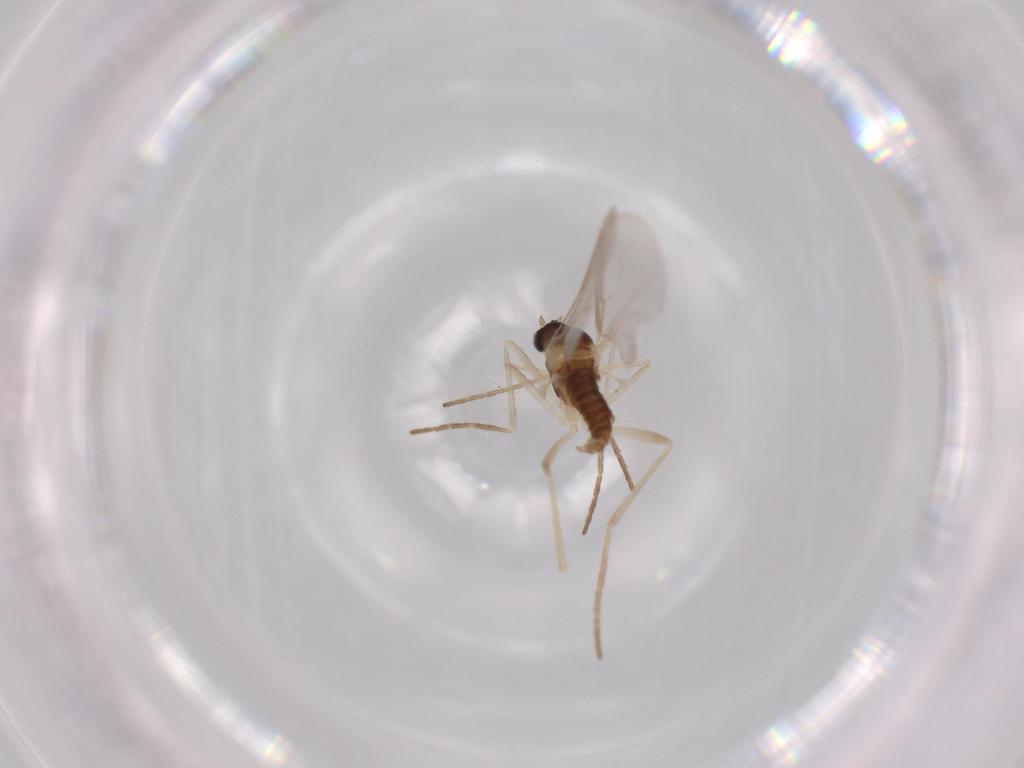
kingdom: Animalia
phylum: Arthropoda
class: Insecta
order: Diptera
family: Cecidomyiidae
